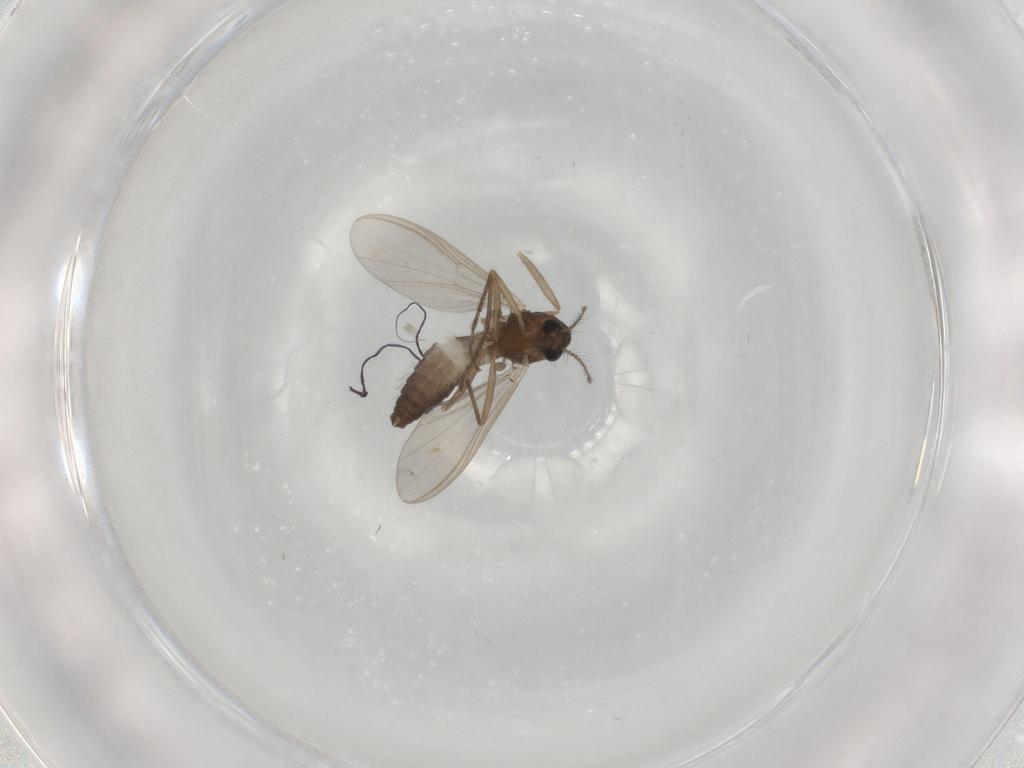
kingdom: Animalia
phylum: Arthropoda
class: Insecta
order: Diptera
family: Chironomidae
